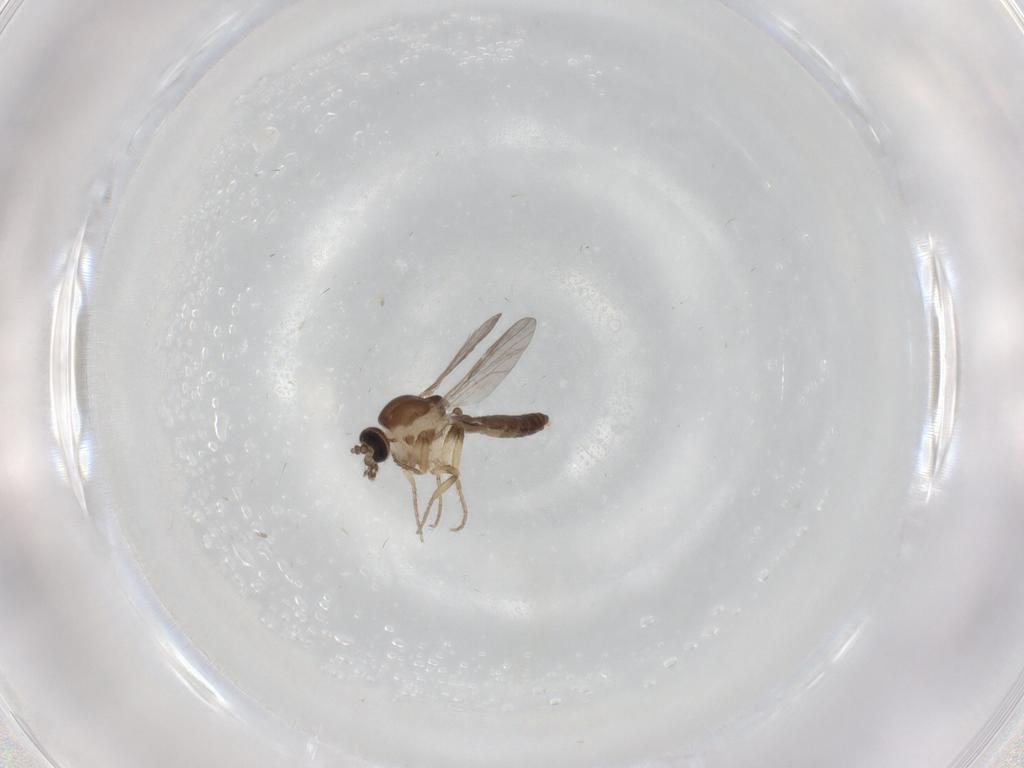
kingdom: Animalia
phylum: Arthropoda
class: Insecta
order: Diptera
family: Ceratopogonidae
